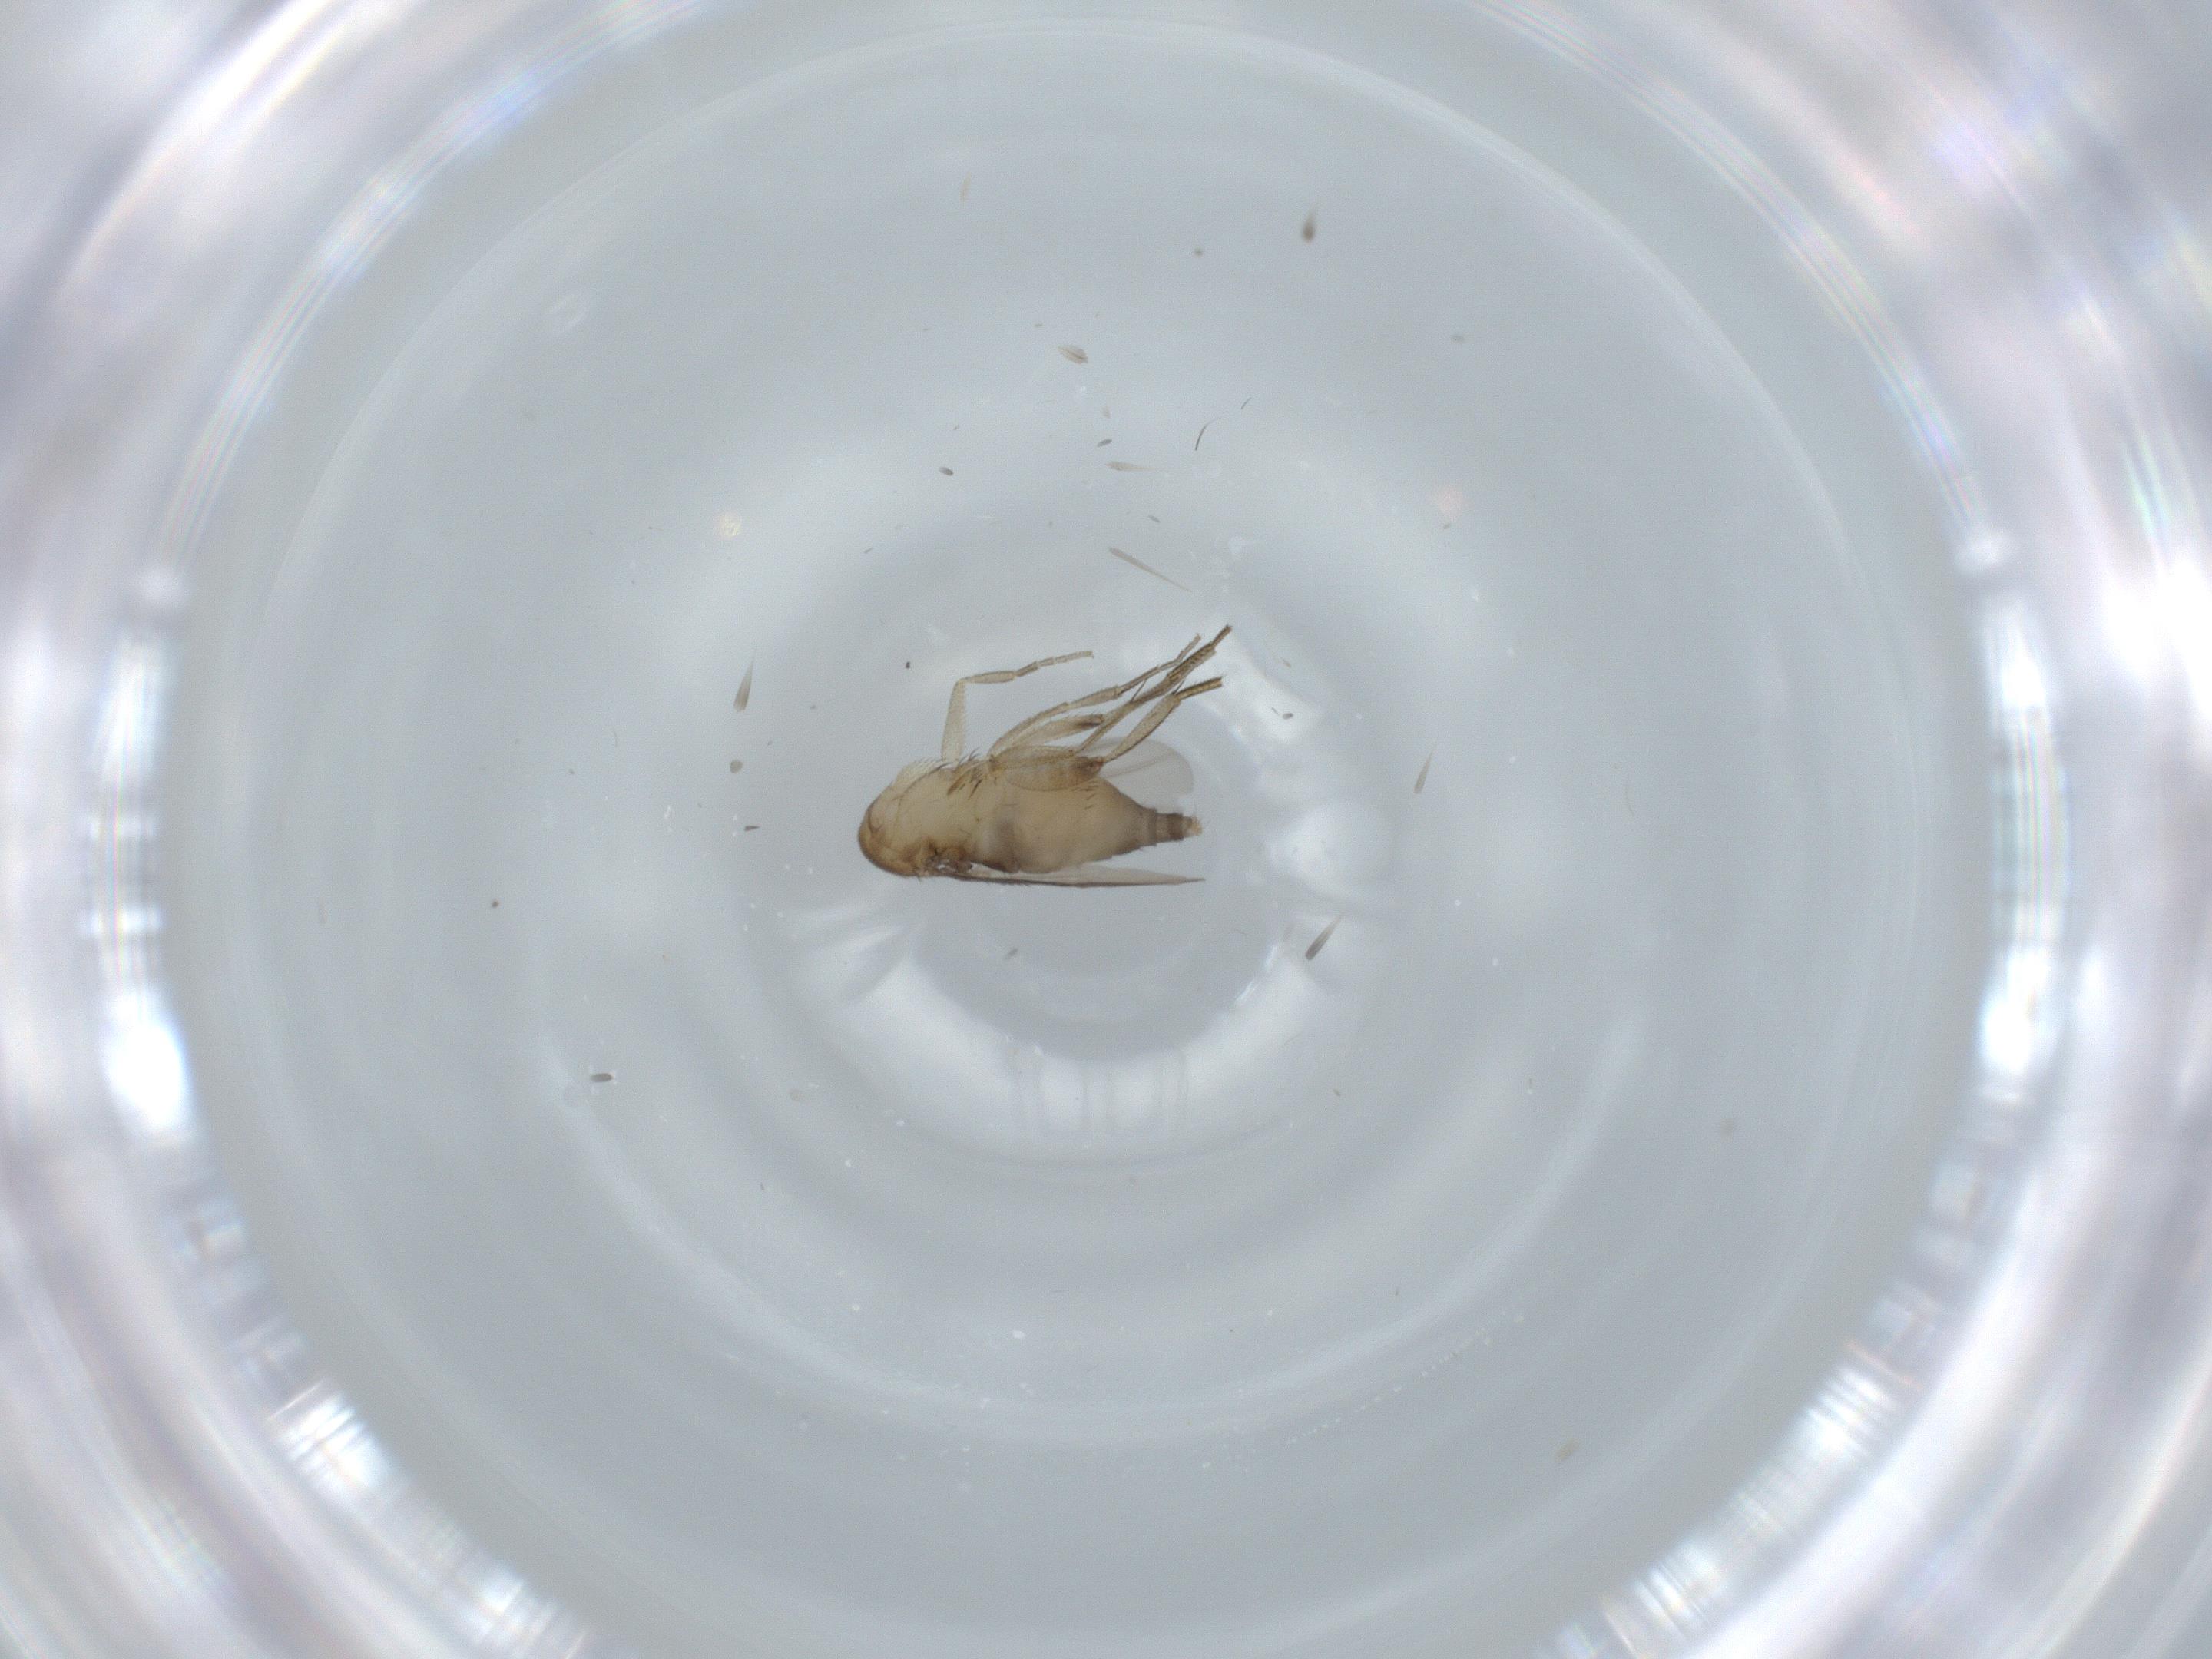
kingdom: Animalia
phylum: Arthropoda
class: Insecta
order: Diptera
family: Phoridae
